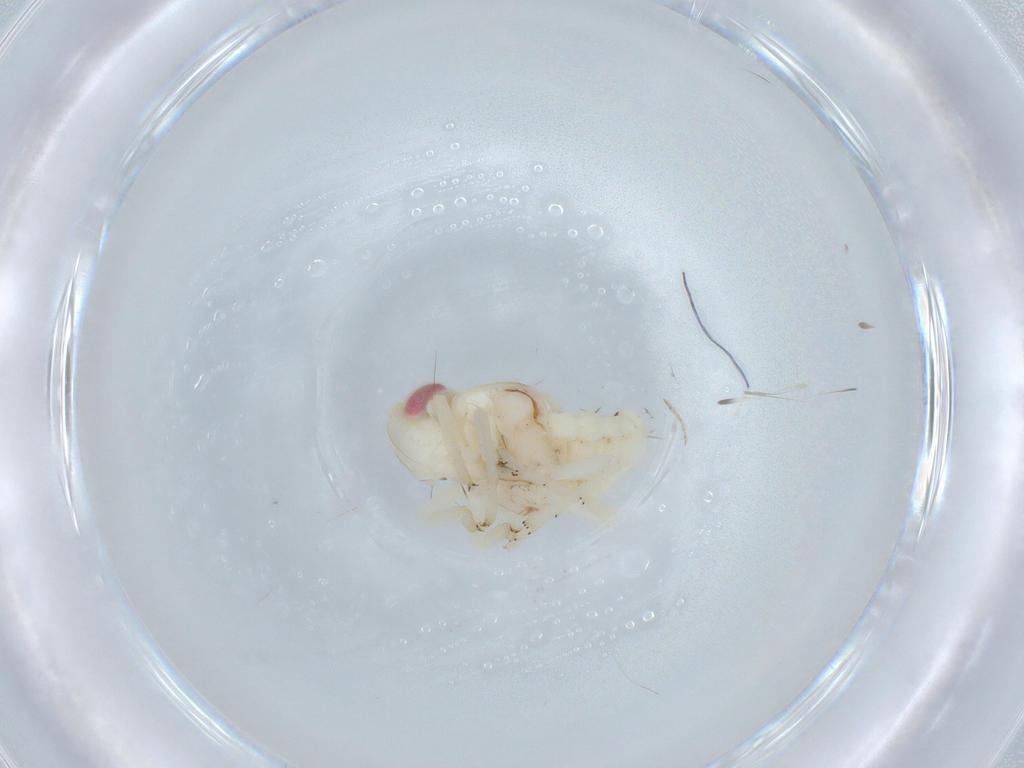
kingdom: Animalia
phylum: Arthropoda
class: Insecta
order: Hemiptera
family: Nogodinidae
